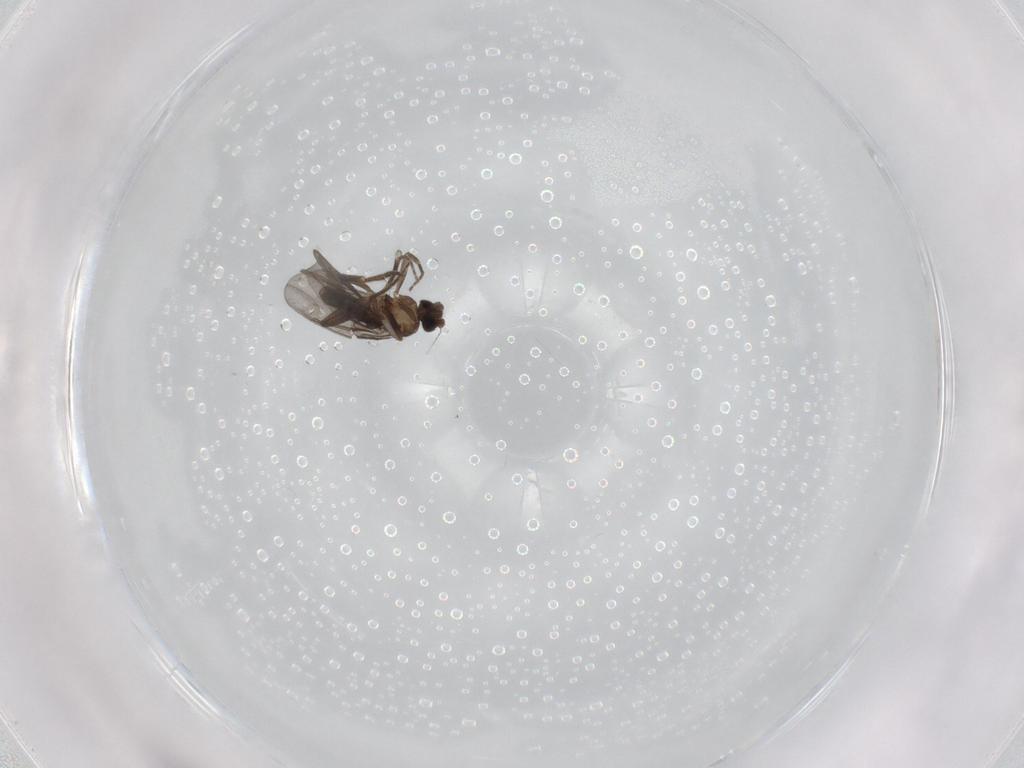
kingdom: Animalia
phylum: Arthropoda
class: Insecta
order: Diptera
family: Phoridae
